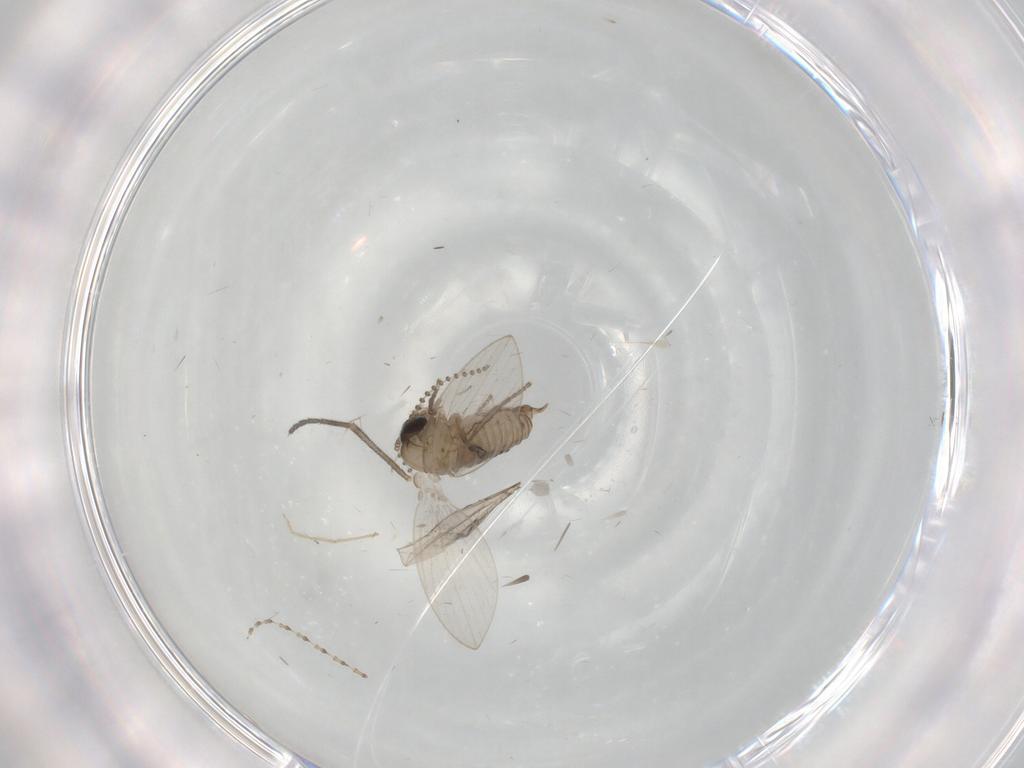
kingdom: Animalia
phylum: Arthropoda
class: Insecta
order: Diptera
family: Psychodidae
